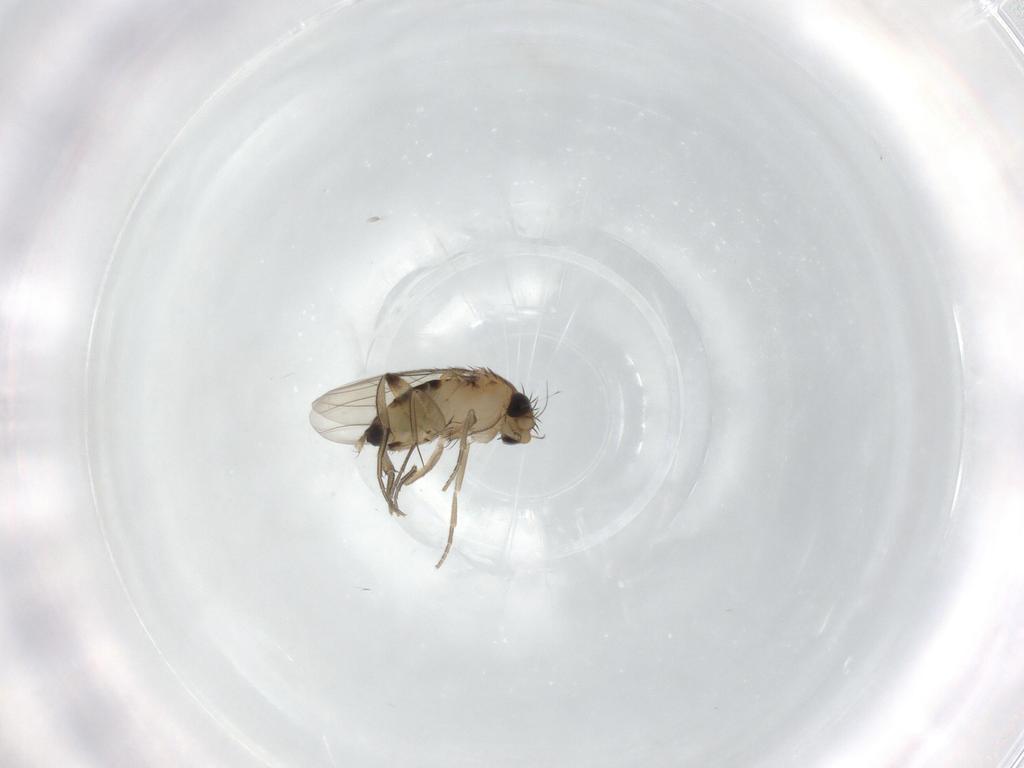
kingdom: Animalia
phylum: Arthropoda
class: Insecta
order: Diptera
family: Phoridae
